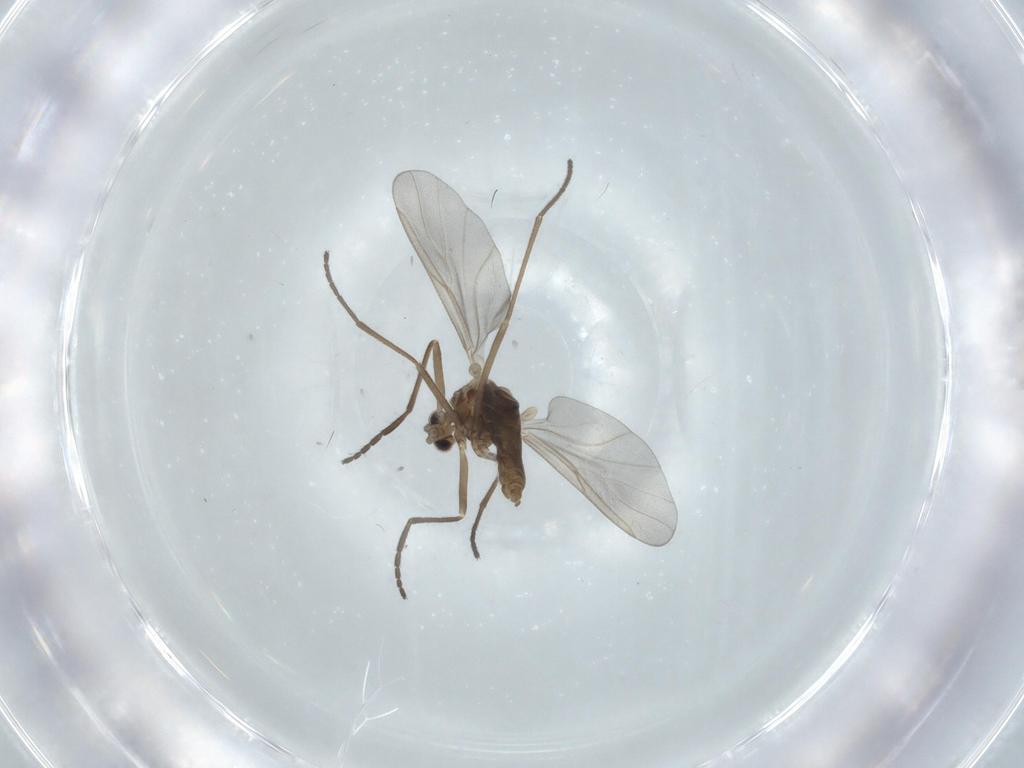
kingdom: Animalia
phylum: Arthropoda
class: Insecta
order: Diptera
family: Cecidomyiidae
